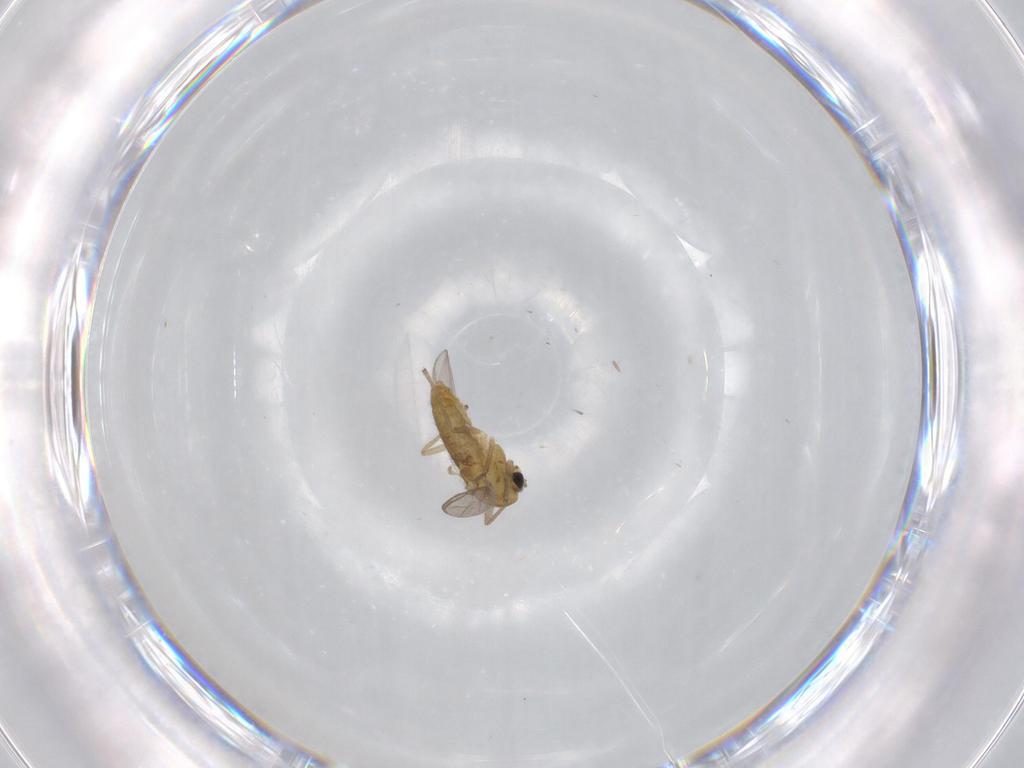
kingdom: Animalia
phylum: Arthropoda
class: Insecta
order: Diptera
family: Chironomidae
